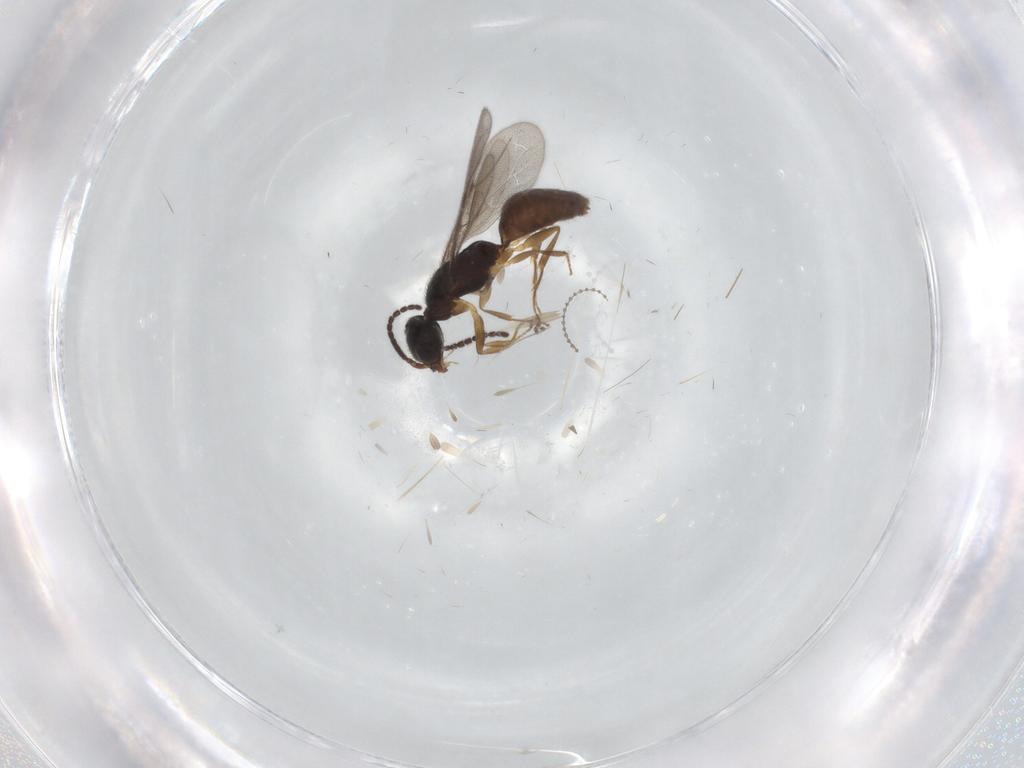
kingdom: Animalia
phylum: Arthropoda
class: Insecta
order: Hymenoptera
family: Bethylidae
